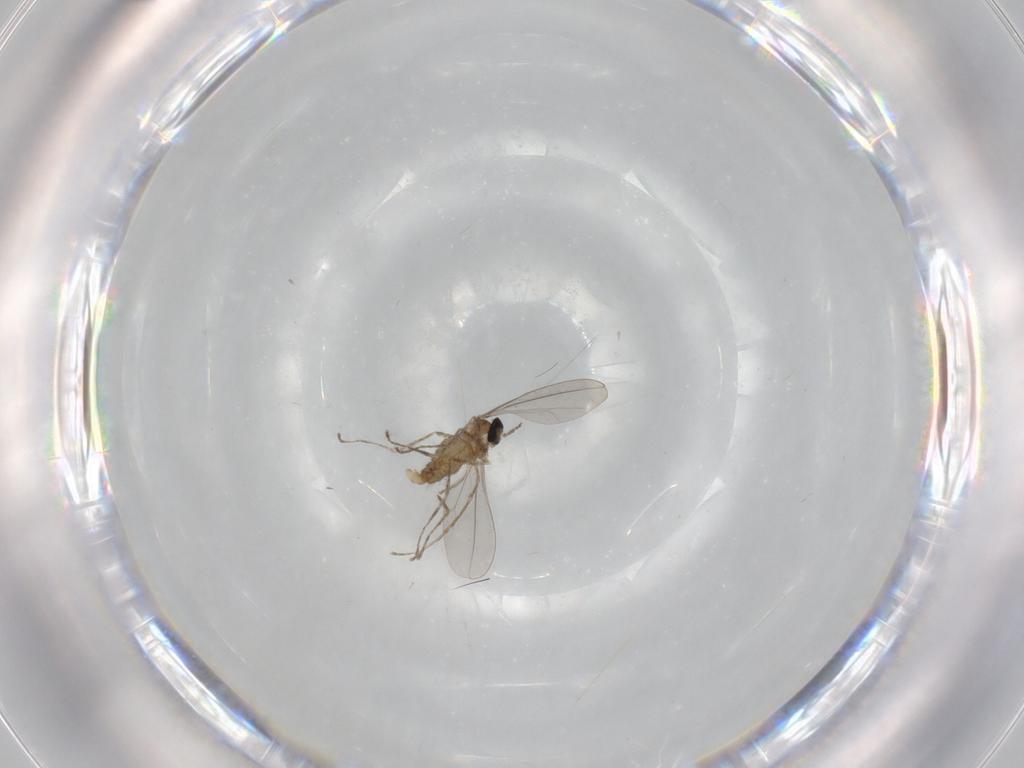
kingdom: Animalia
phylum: Arthropoda
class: Insecta
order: Diptera
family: Cecidomyiidae
